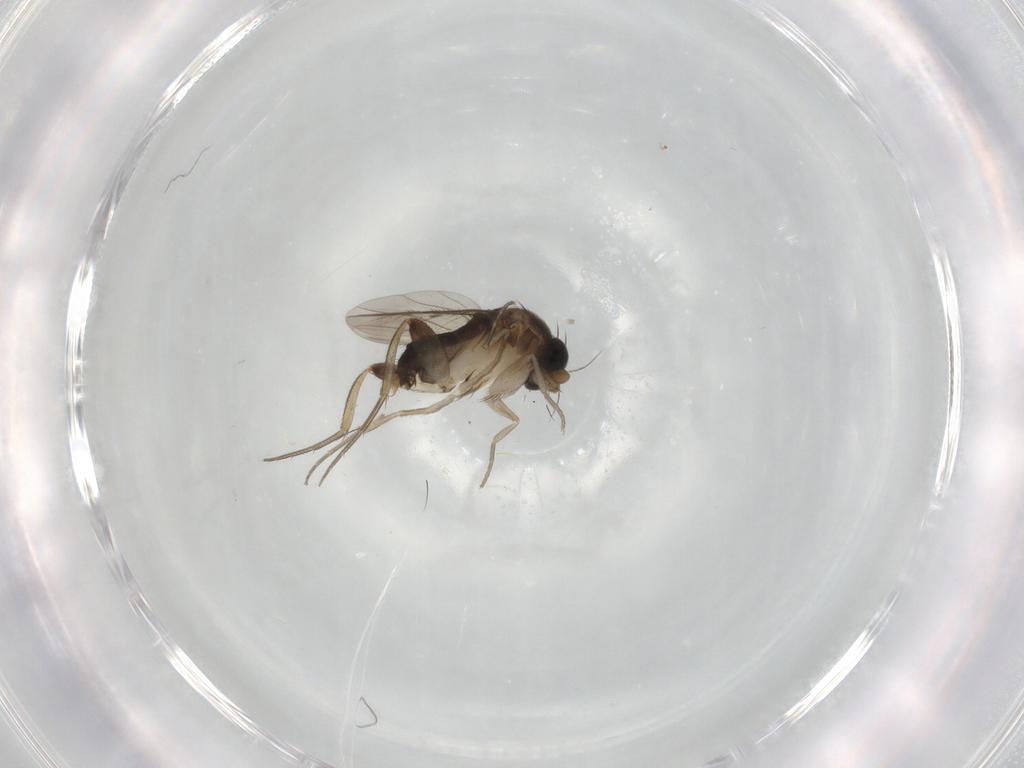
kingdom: Animalia
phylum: Arthropoda
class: Insecta
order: Diptera
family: Phoridae
